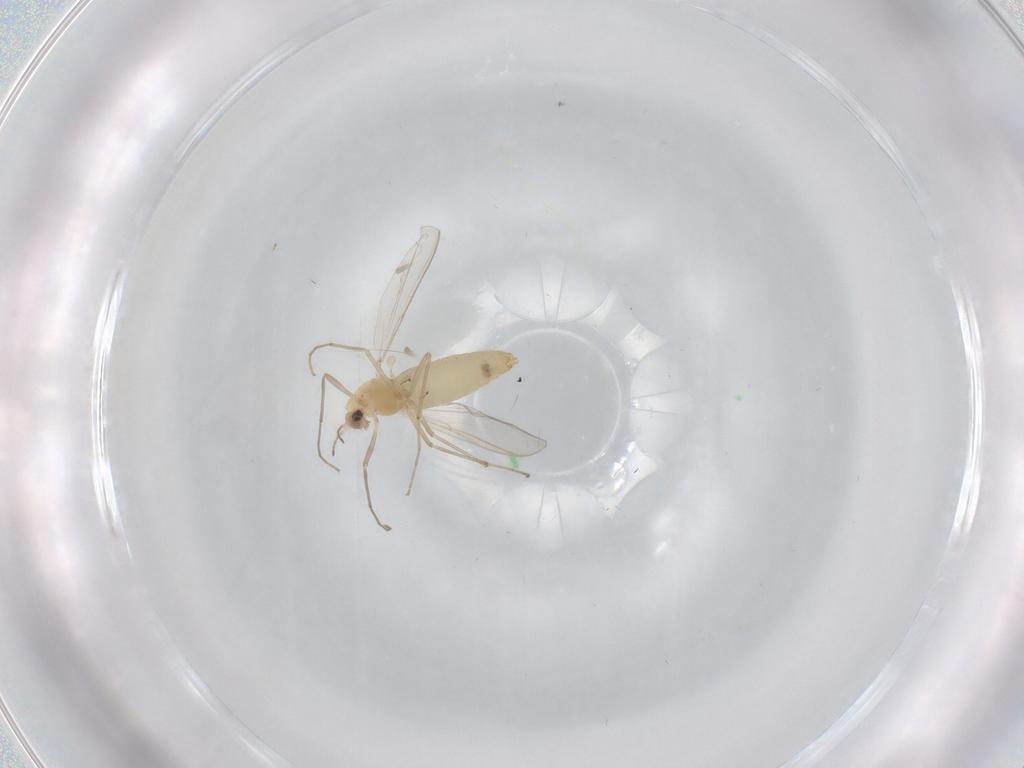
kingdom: Animalia
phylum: Arthropoda
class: Insecta
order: Diptera
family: Chironomidae
